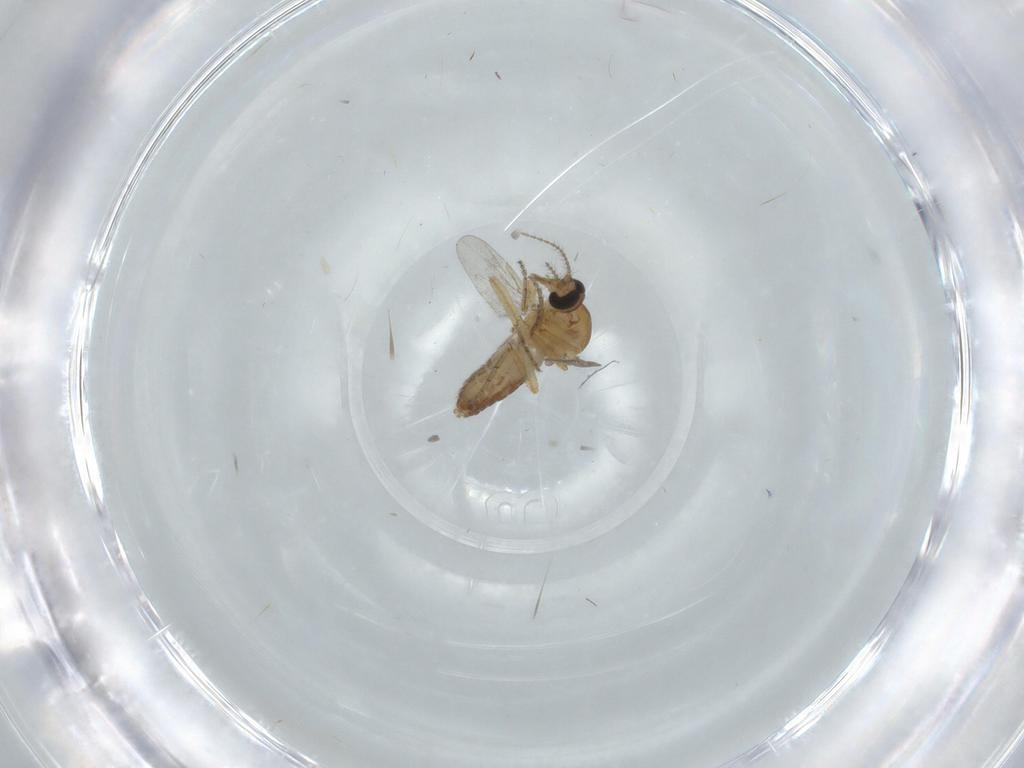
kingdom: Animalia
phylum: Arthropoda
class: Insecta
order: Diptera
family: Ceratopogonidae
